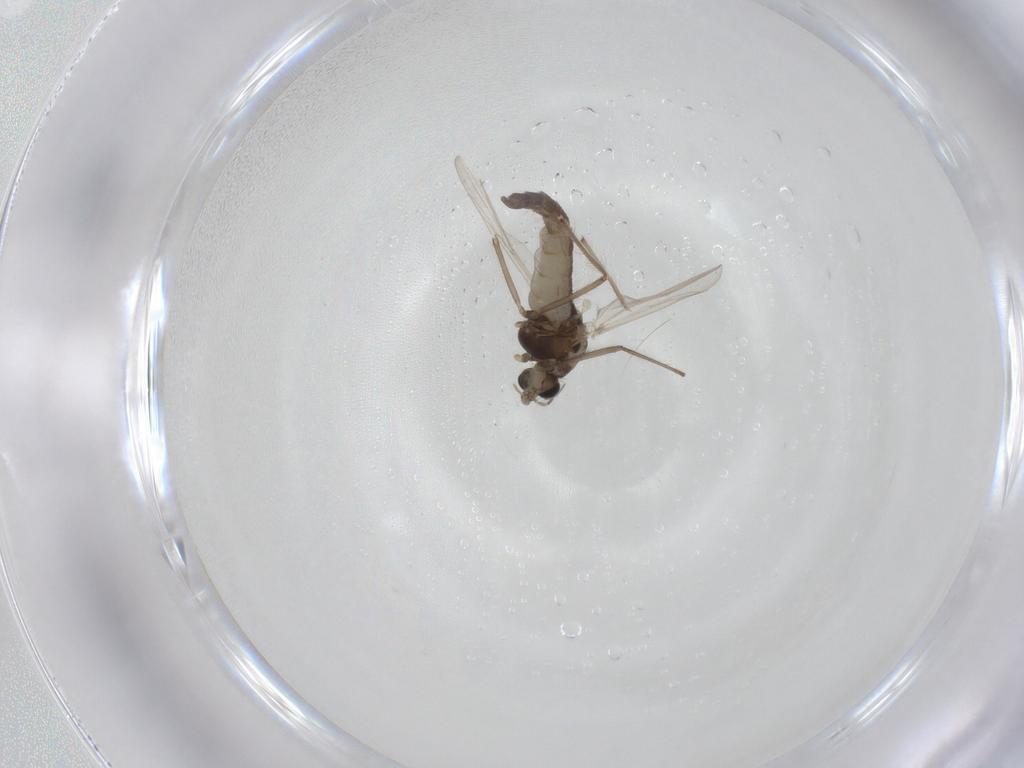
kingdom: Animalia
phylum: Arthropoda
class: Insecta
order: Diptera
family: Chironomidae
